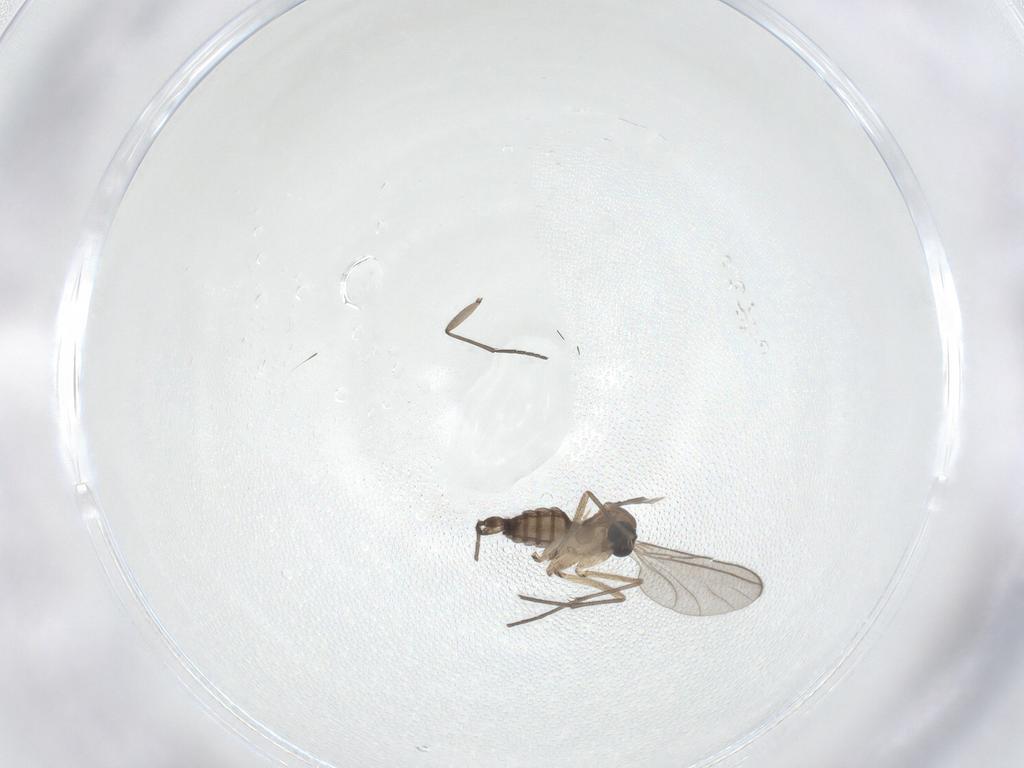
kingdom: Animalia
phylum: Arthropoda
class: Insecta
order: Diptera
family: Sciaridae
